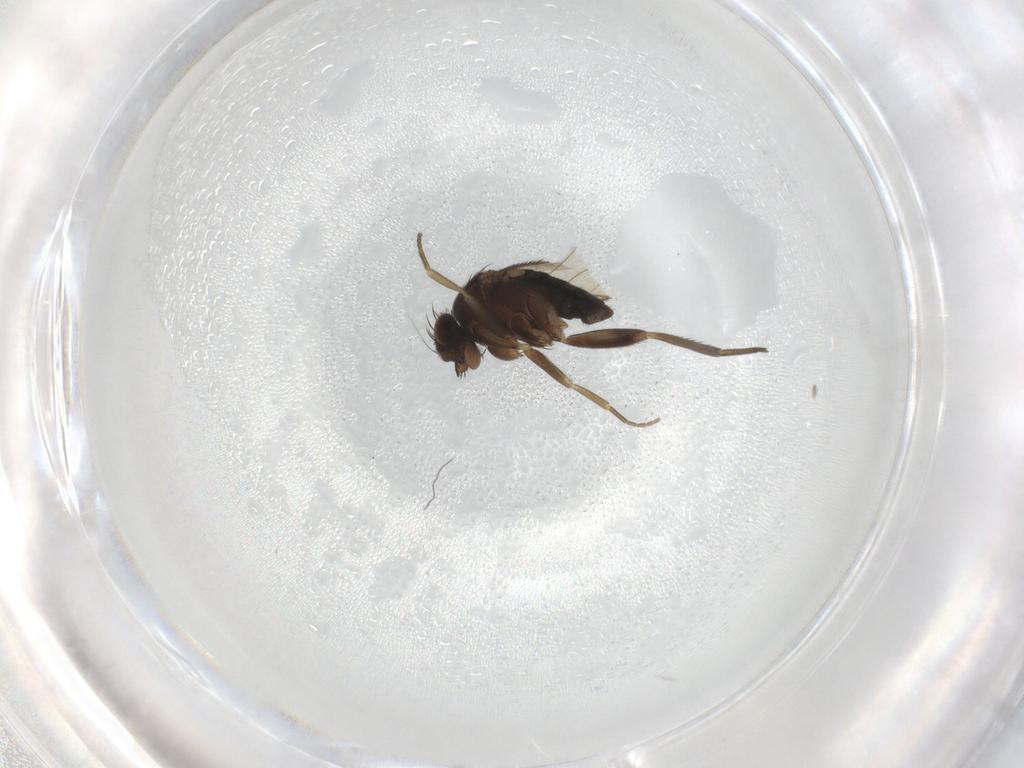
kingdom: Animalia
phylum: Arthropoda
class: Insecta
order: Diptera
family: Phoridae
